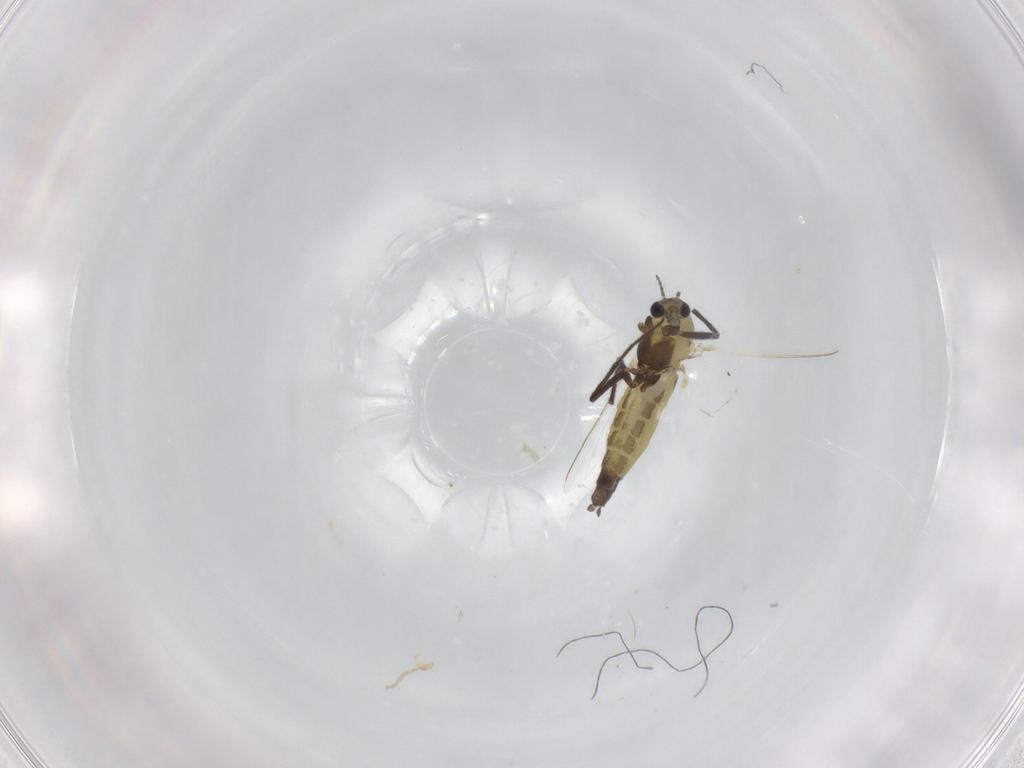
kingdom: Animalia
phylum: Arthropoda
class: Insecta
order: Diptera
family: Chironomidae
